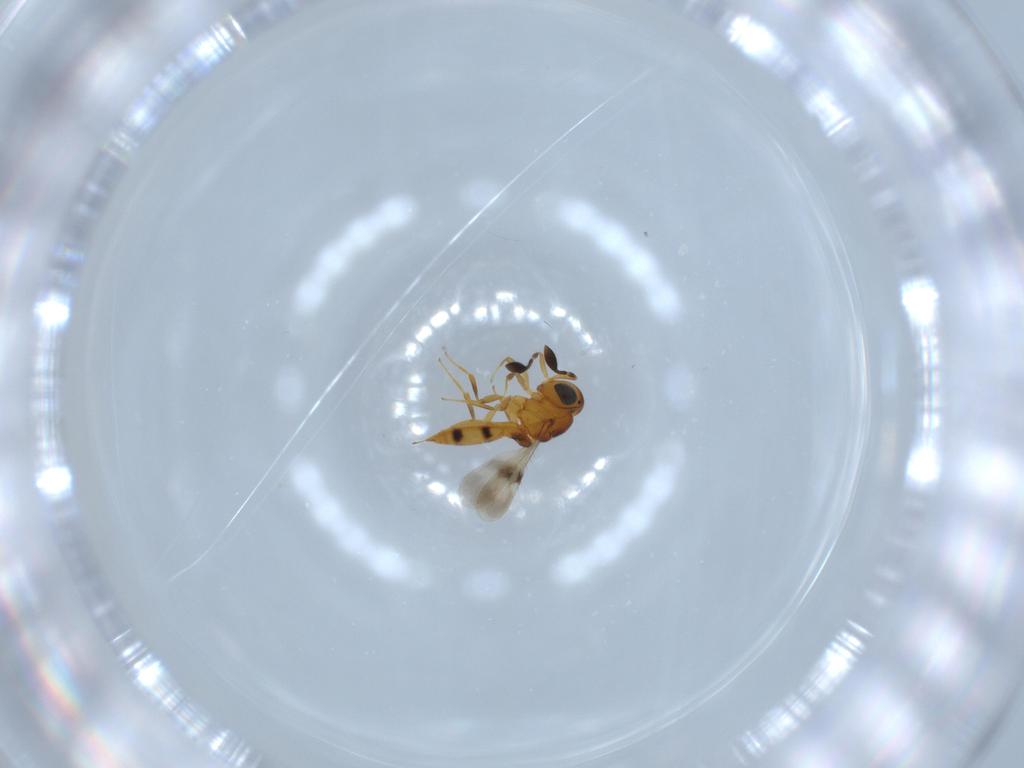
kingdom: Animalia
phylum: Arthropoda
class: Insecta
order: Hymenoptera
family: Scelionidae
